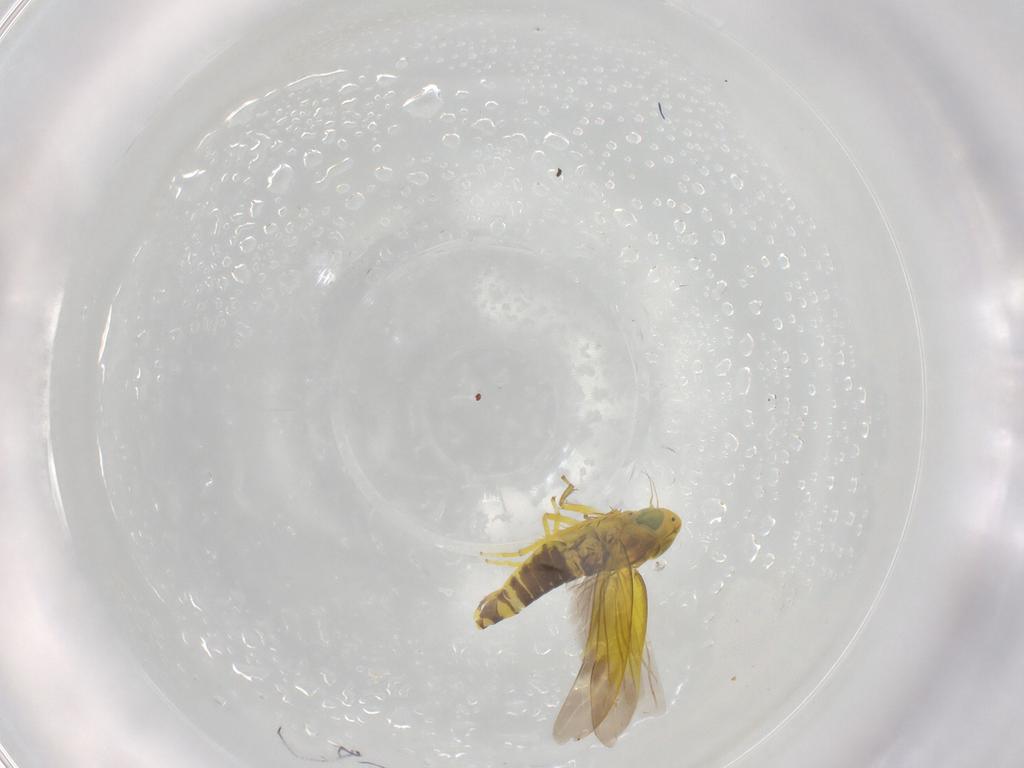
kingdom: Animalia
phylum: Arthropoda
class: Insecta
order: Hemiptera
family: Cicadellidae
